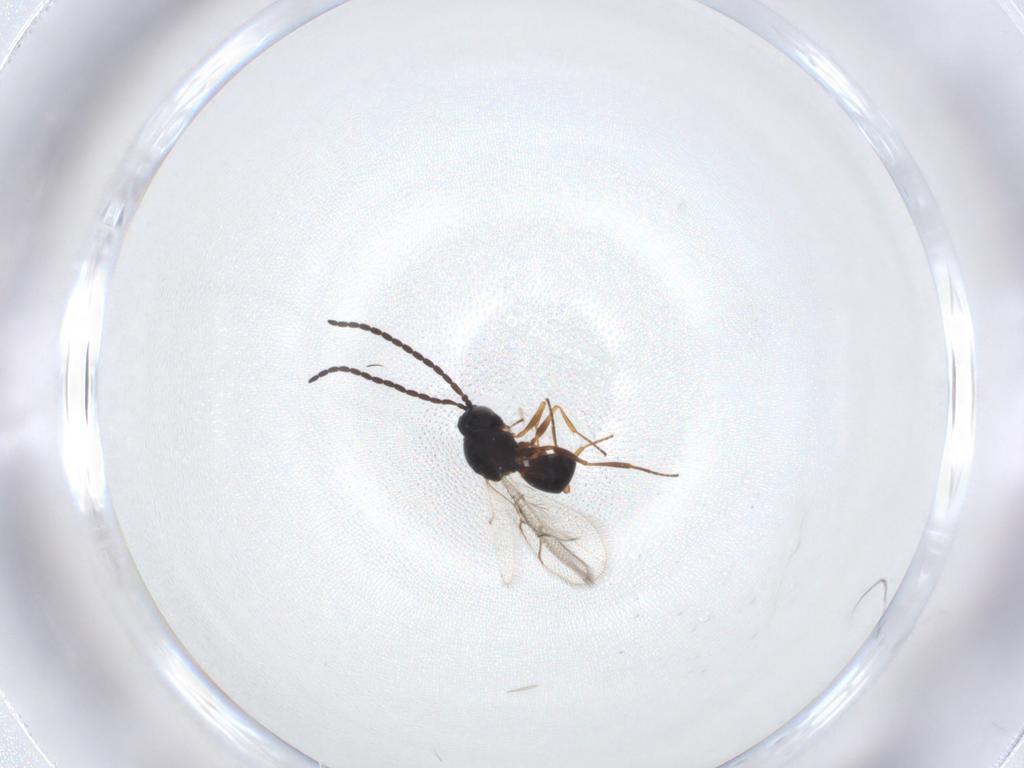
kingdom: Animalia
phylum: Arthropoda
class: Insecta
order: Hymenoptera
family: Figitidae
